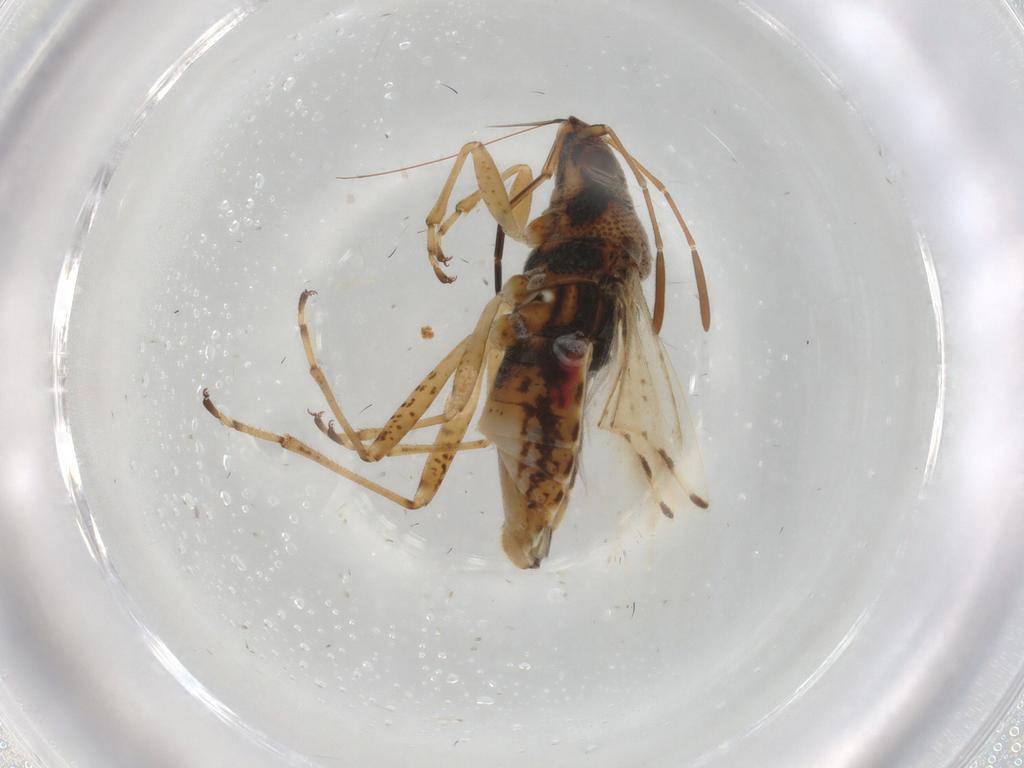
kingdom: Animalia
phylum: Arthropoda
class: Insecta
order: Hemiptera
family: Lygaeidae
